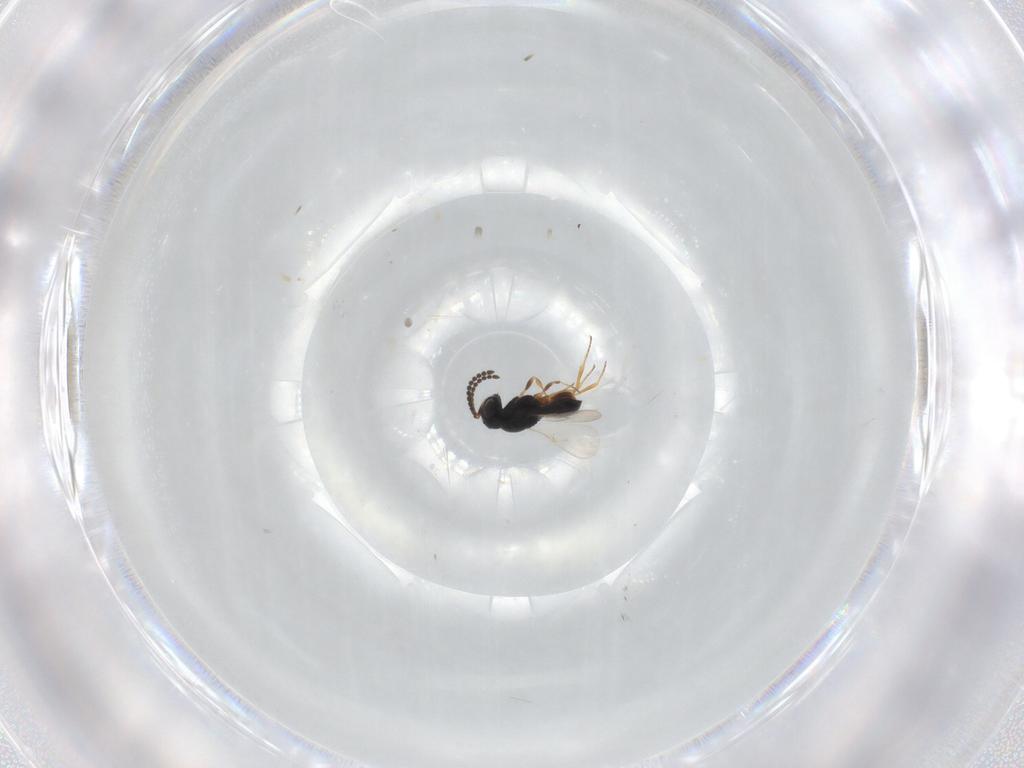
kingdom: Animalia
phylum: Arthropoda
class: Insecta
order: Hymenoptera
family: Scelionidae
